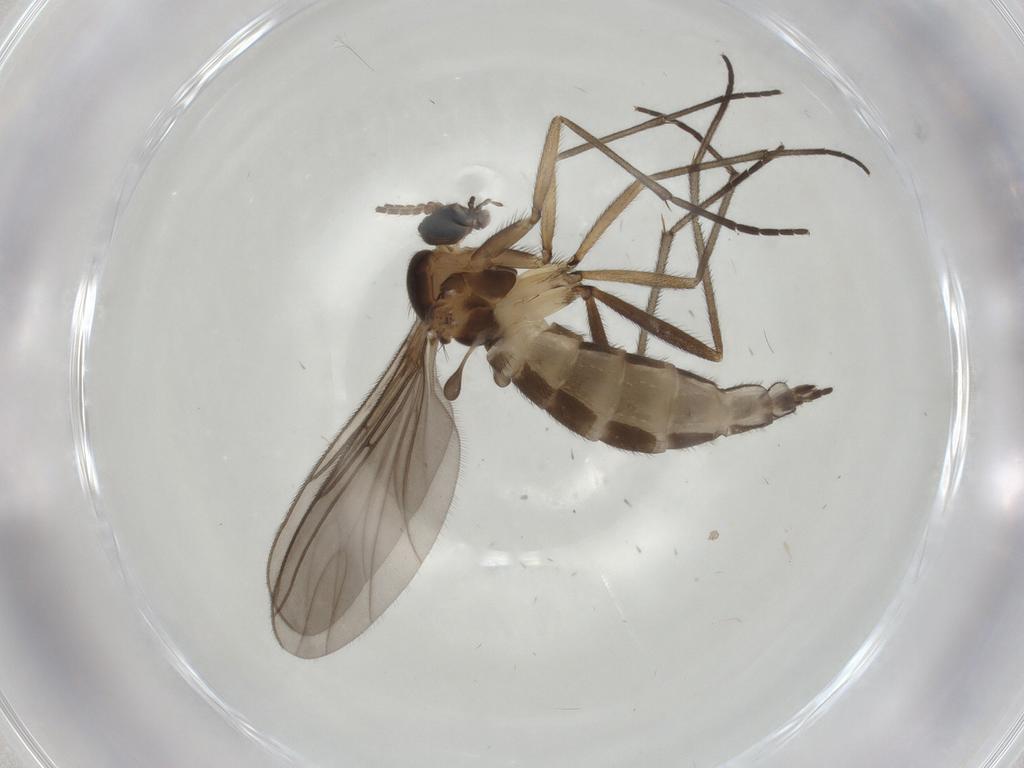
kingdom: Animalia
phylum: Arthropoda
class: Insecta
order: Diptera
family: Sciaridae
